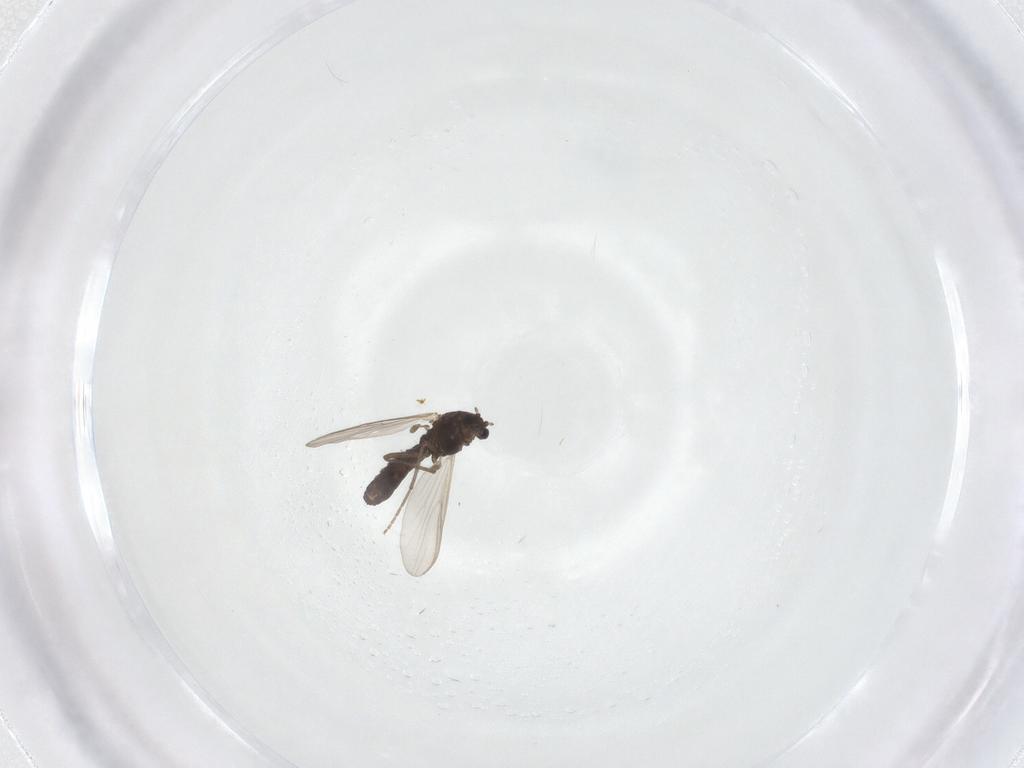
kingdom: Animalia
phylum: Arthropoda
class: Insecta
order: Diptera
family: Chironomidae
